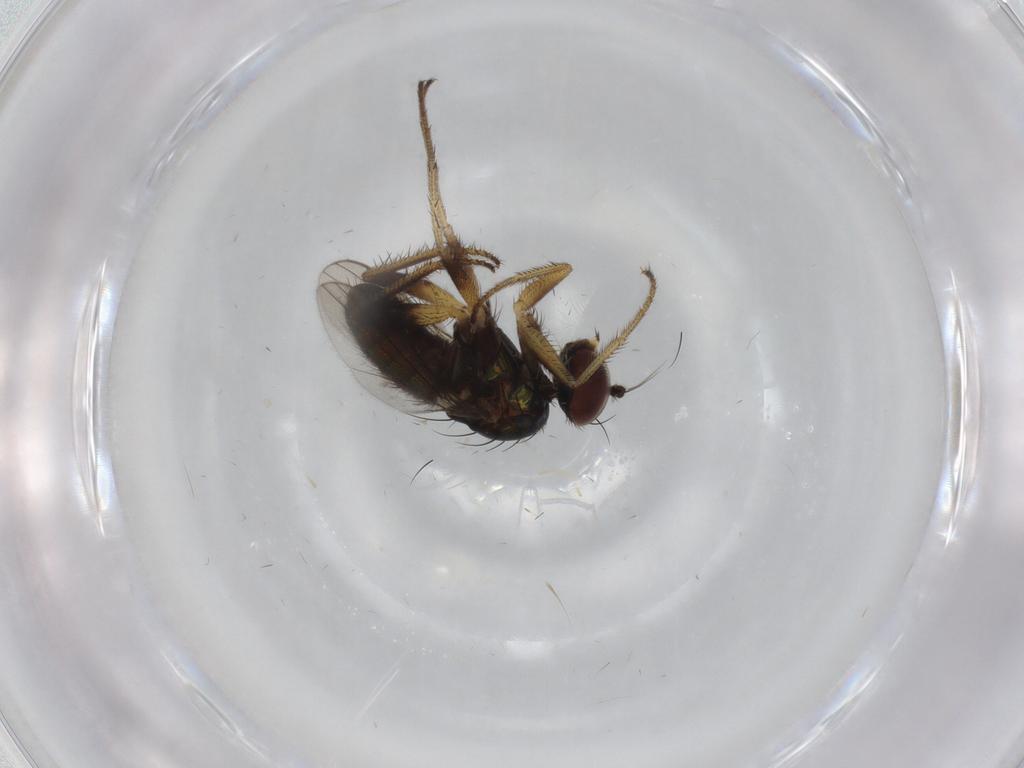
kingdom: Animalia
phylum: Arthropoda
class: Insecta
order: Diptera
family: Dolichopodidae
